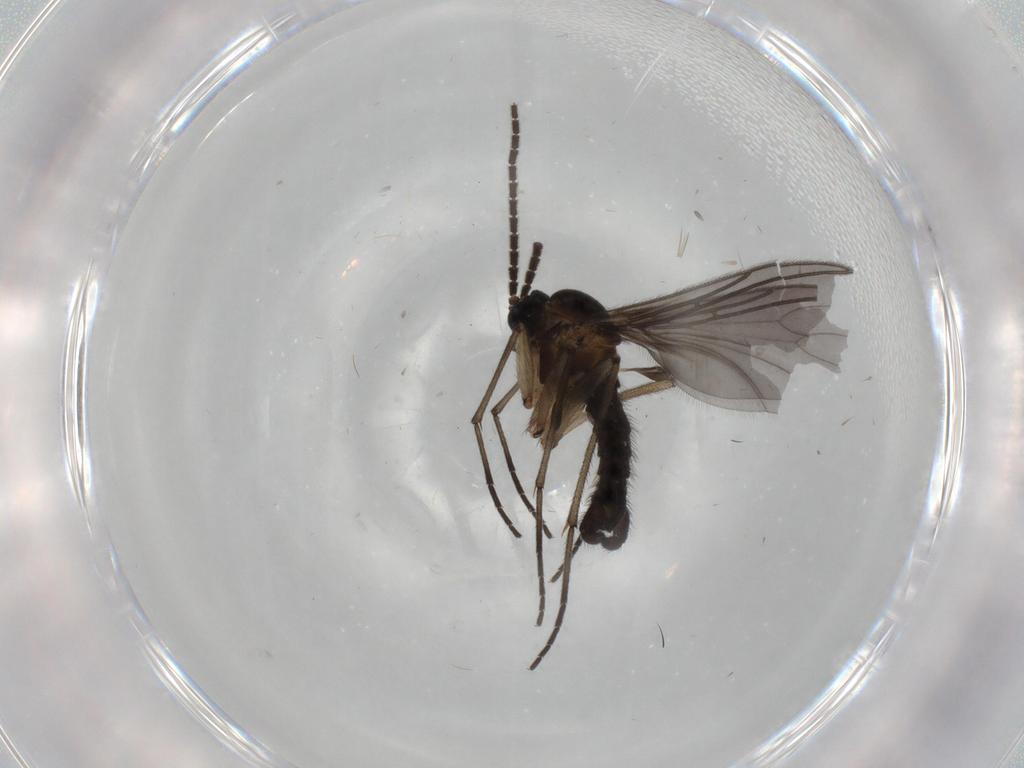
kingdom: Animalia
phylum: Arthropoda
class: Insecta
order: Diptera
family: Sciaridae
